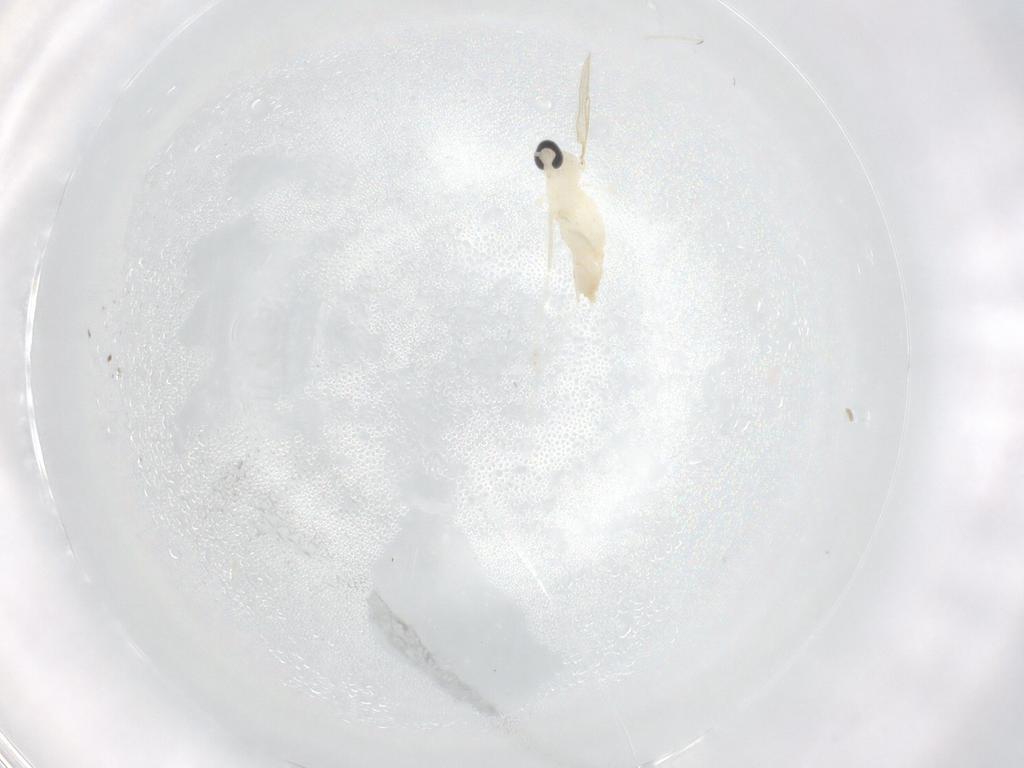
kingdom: Animalia
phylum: Arthropoda
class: Insecta
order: Diptera
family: Cecidomyiidae
